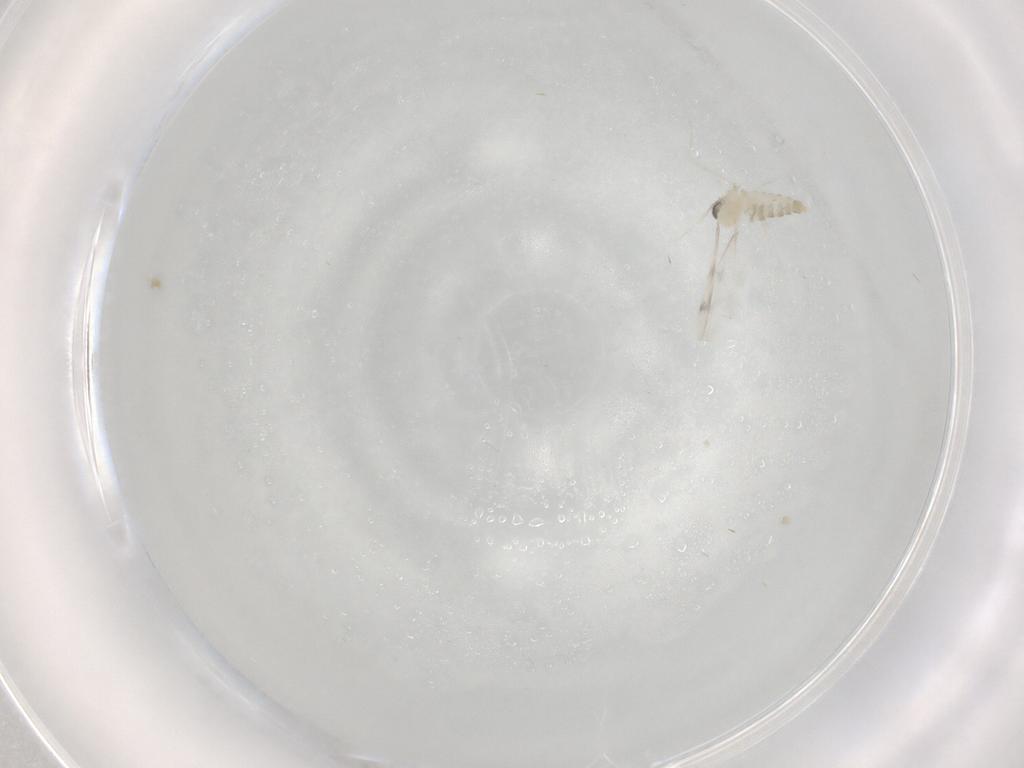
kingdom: Animalia
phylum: Arthropoda
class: Insecta
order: Diptera
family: Cecidomyiidae
